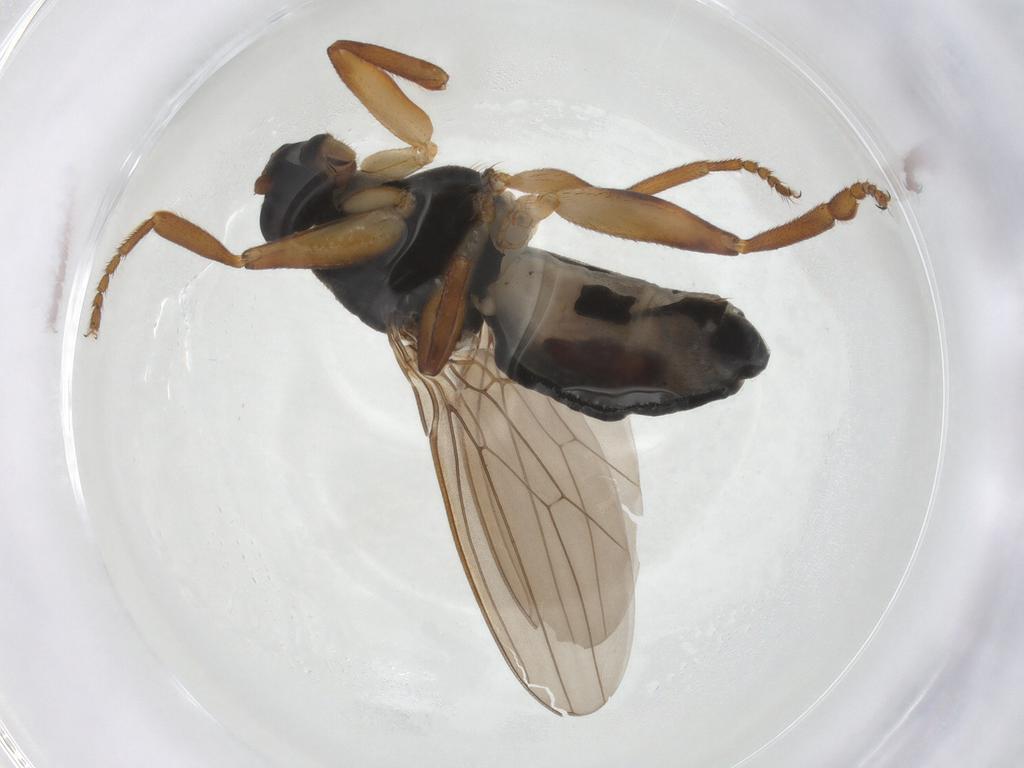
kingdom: Animalia
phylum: Arthropoda
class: Insecta
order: Diptera
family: Sphaeroceridae
